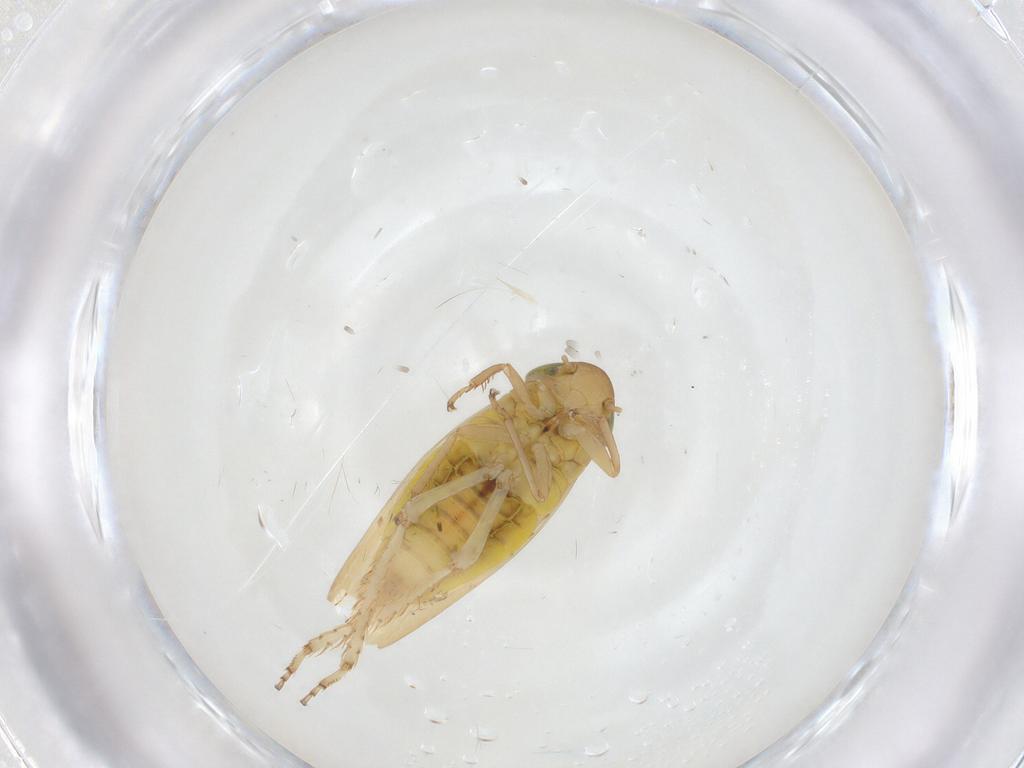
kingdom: Animalia
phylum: Arthropoda
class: Insecta
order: Hemiptera
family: Cicadellidae
